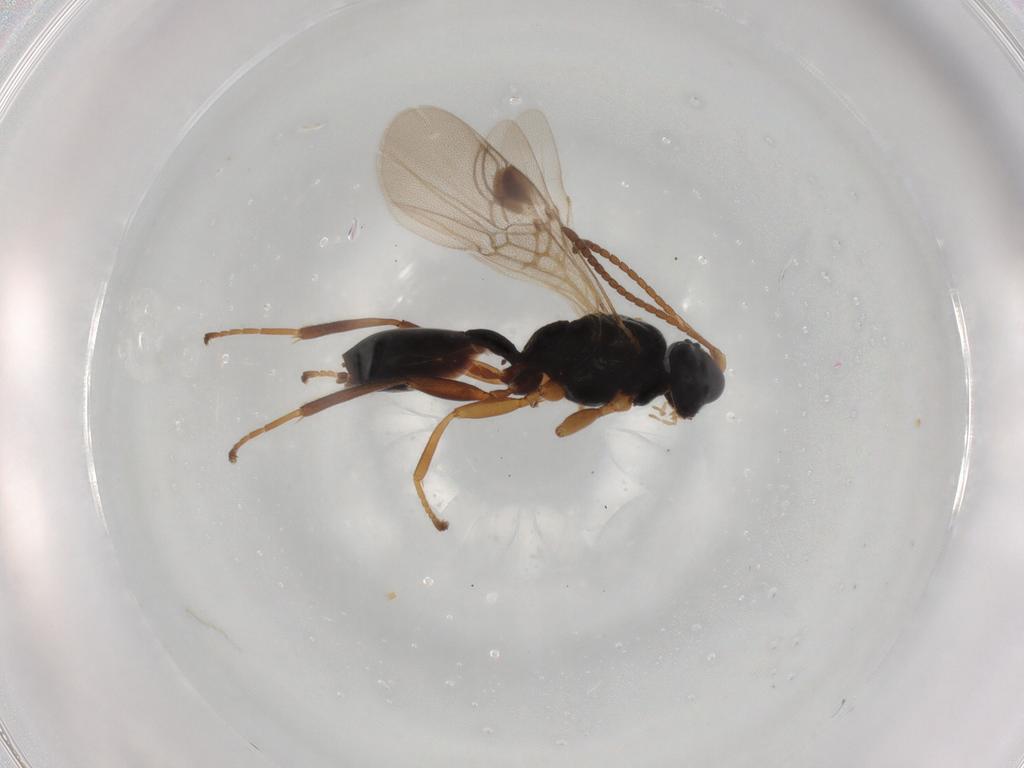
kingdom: Animalia
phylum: Arthropoda
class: Insecta
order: Hymenoptera
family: Braconidae
